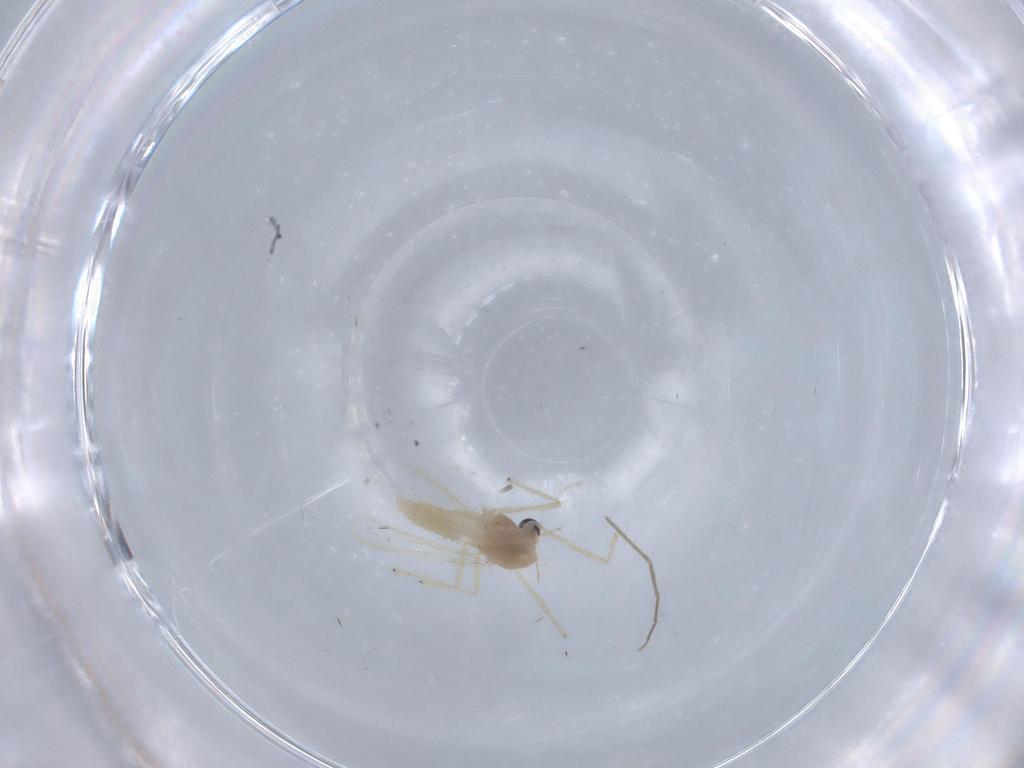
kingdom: Animalia
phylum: Arthropoda
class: Insecta
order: Diptera
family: Chironomidae
